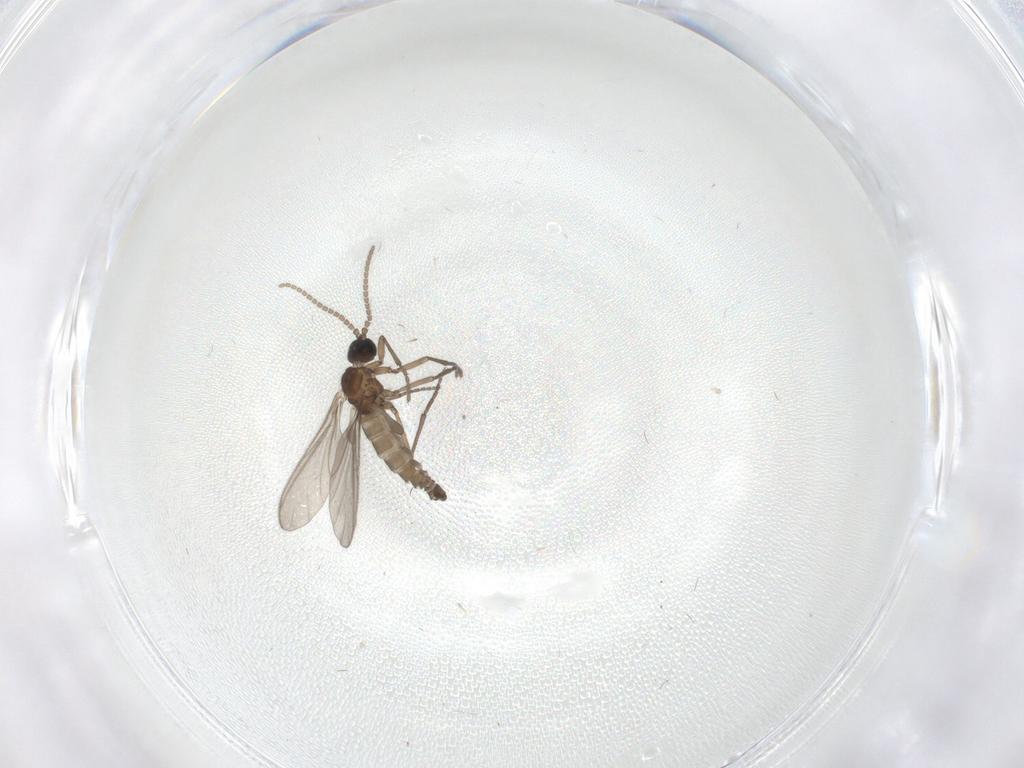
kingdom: Animalia
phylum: Arthropoda
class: Insecta
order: Diptera
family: Sciaridae
